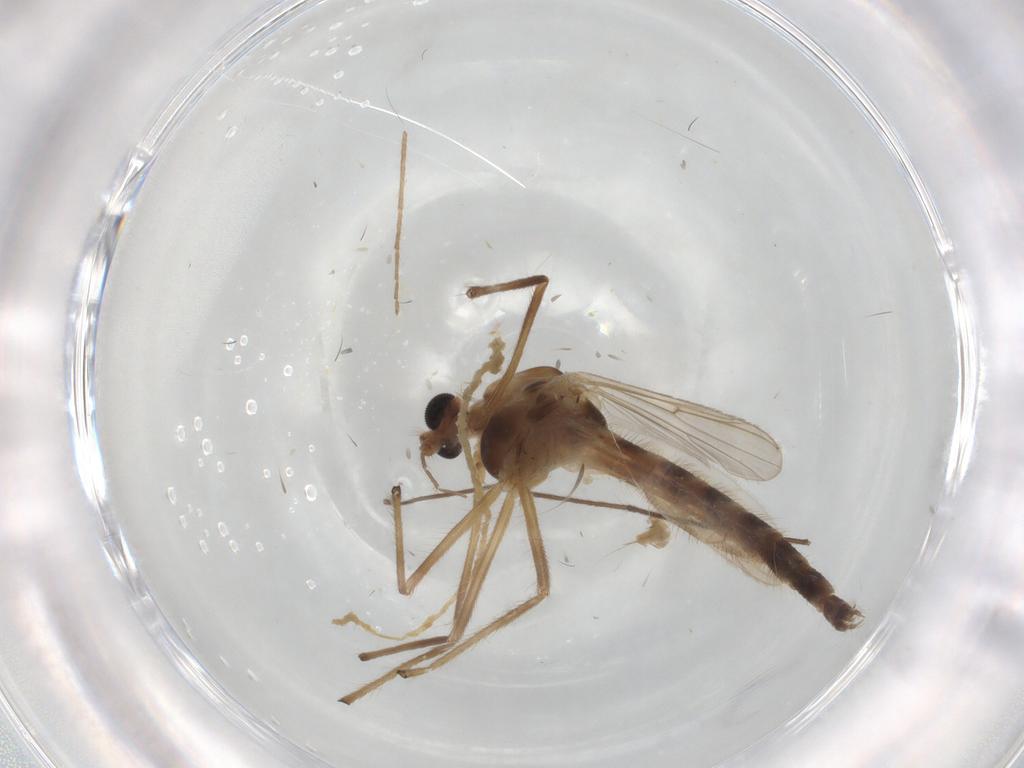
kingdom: Animalia
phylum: Arthropoda
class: Insecta
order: Diptera
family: Chironomidae
